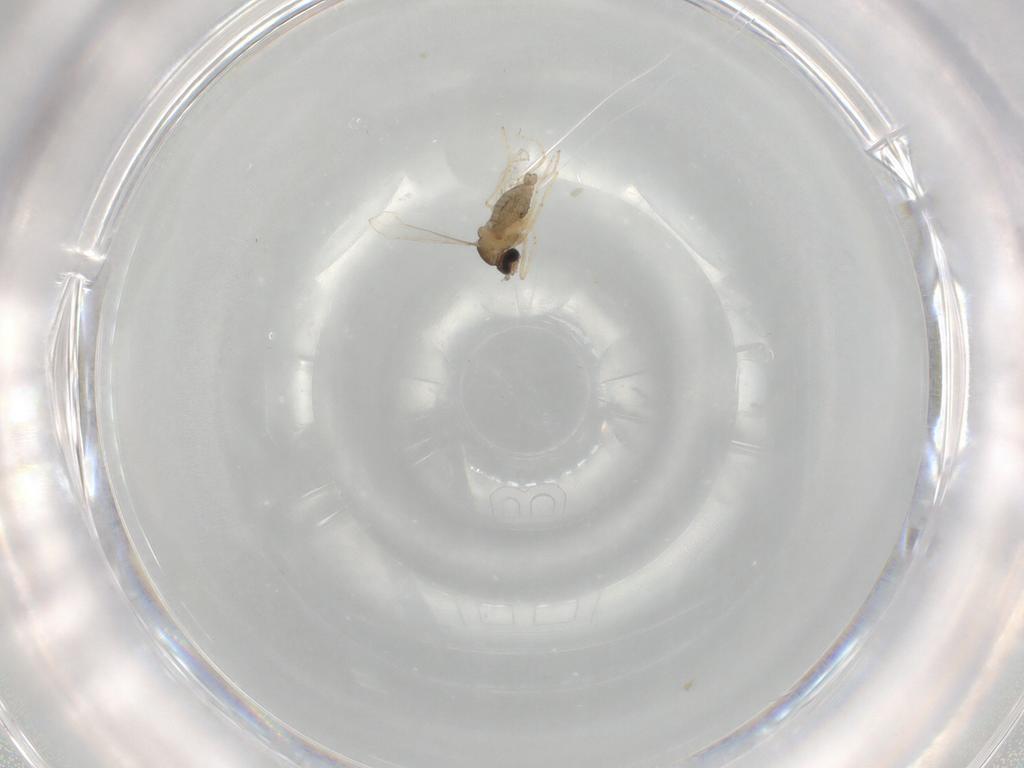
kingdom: Animalia
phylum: Arthropoda
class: Insecta
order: Diptera
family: Cecidomyiidae
